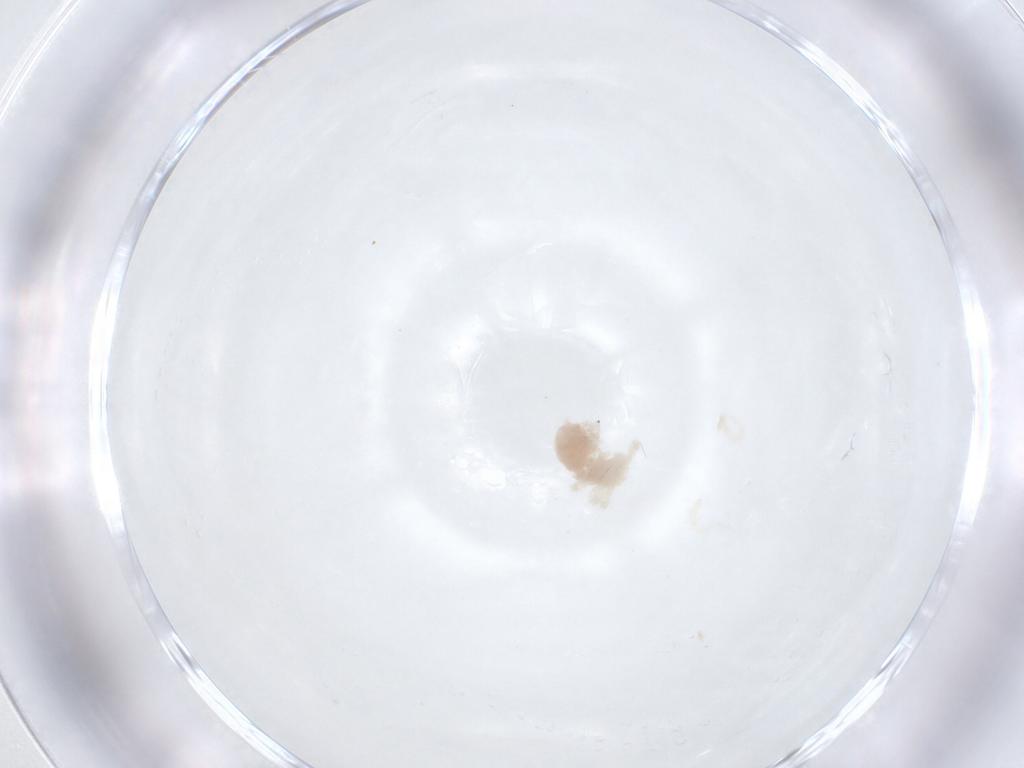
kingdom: Animalia
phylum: Arthropoda
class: Arachnida
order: Trombidiformes
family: Anystidae
